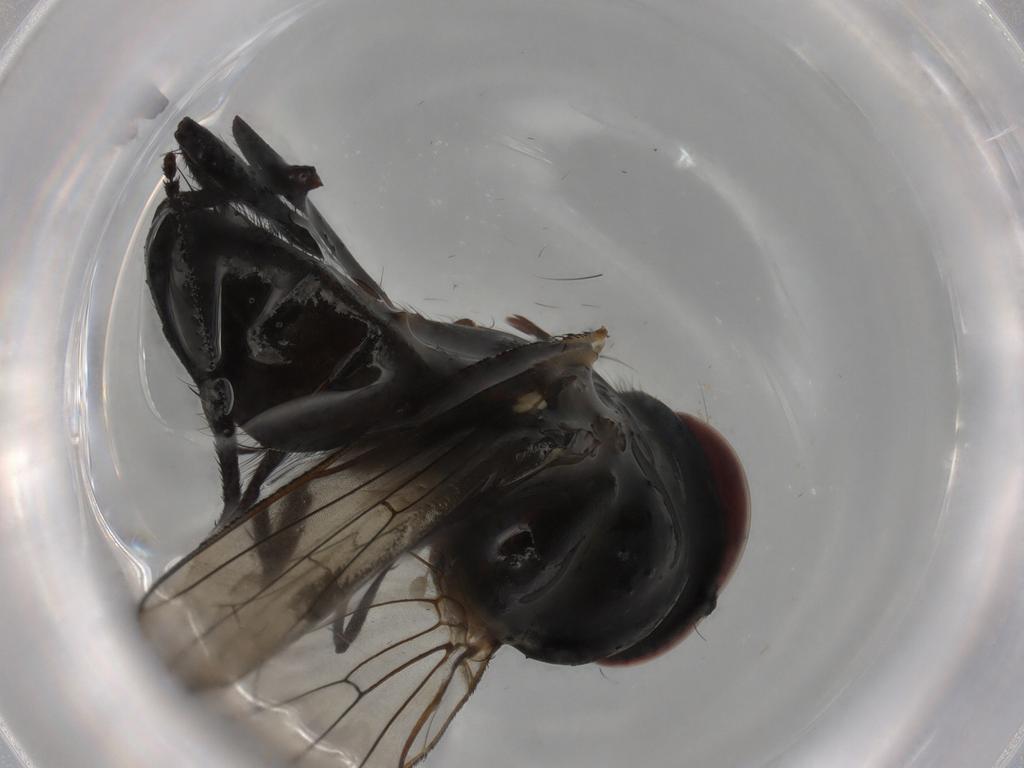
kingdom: Animalia
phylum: Arthropoda
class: Insecta
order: Diptera
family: Anthomyiidae
